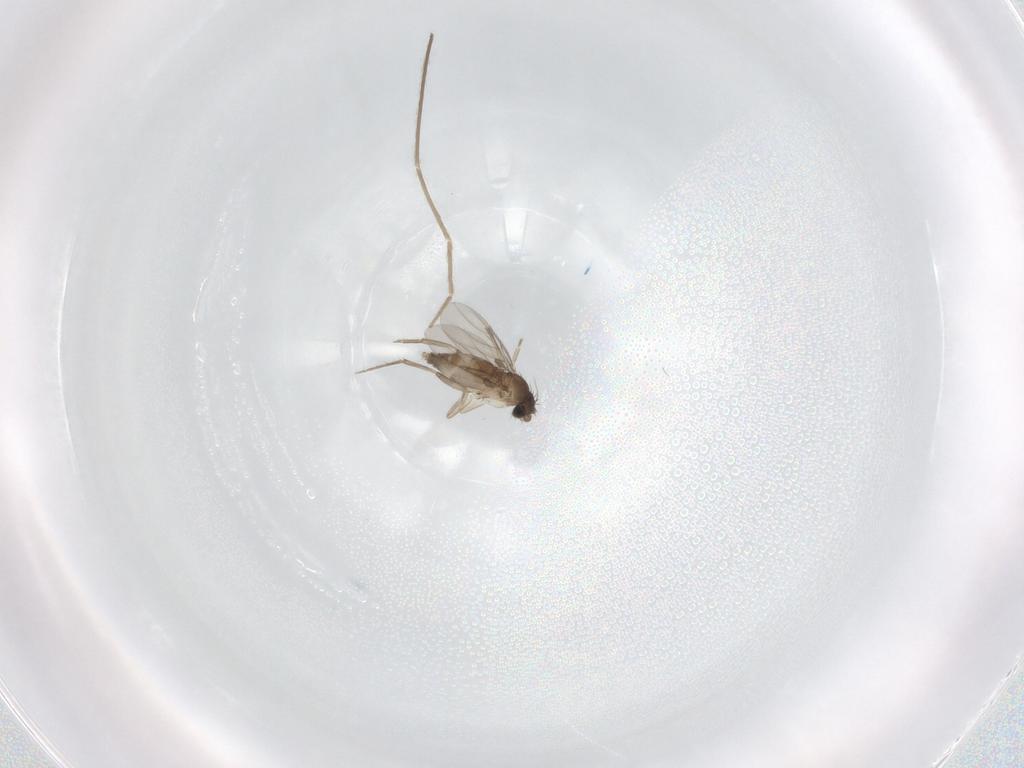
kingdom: Animalia
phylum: Arthropoda
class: Insecta
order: Diptera
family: Phoridae
